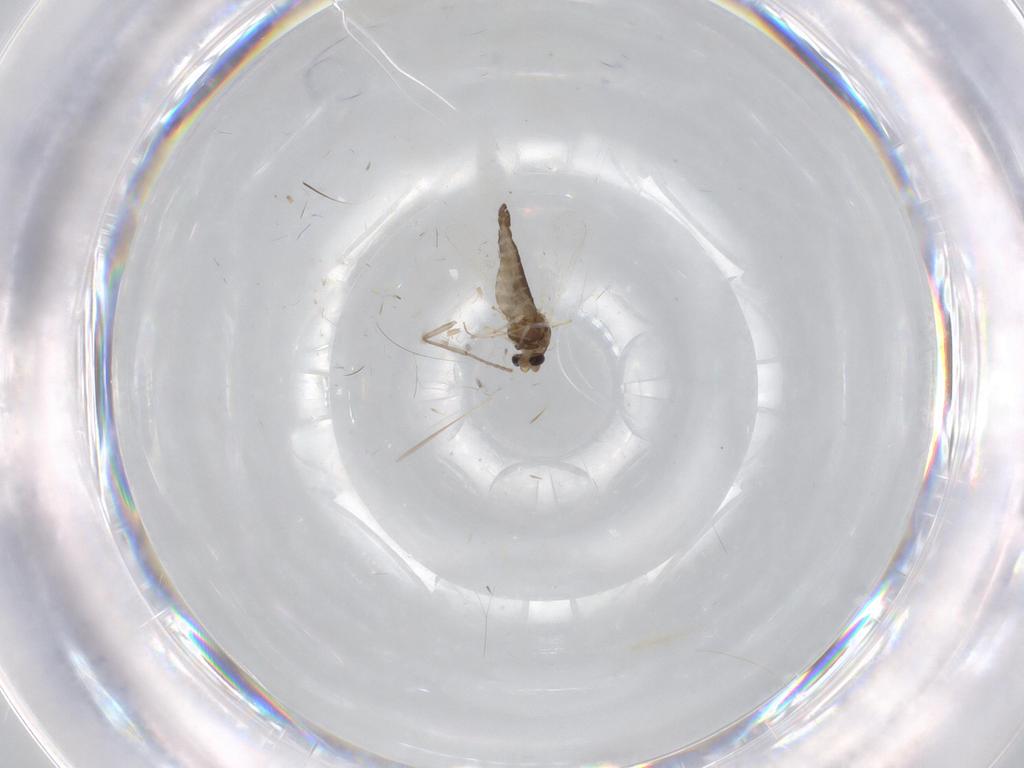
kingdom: Animalia
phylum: Arthropoda
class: Insecta
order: Diptera
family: Chironomidae
